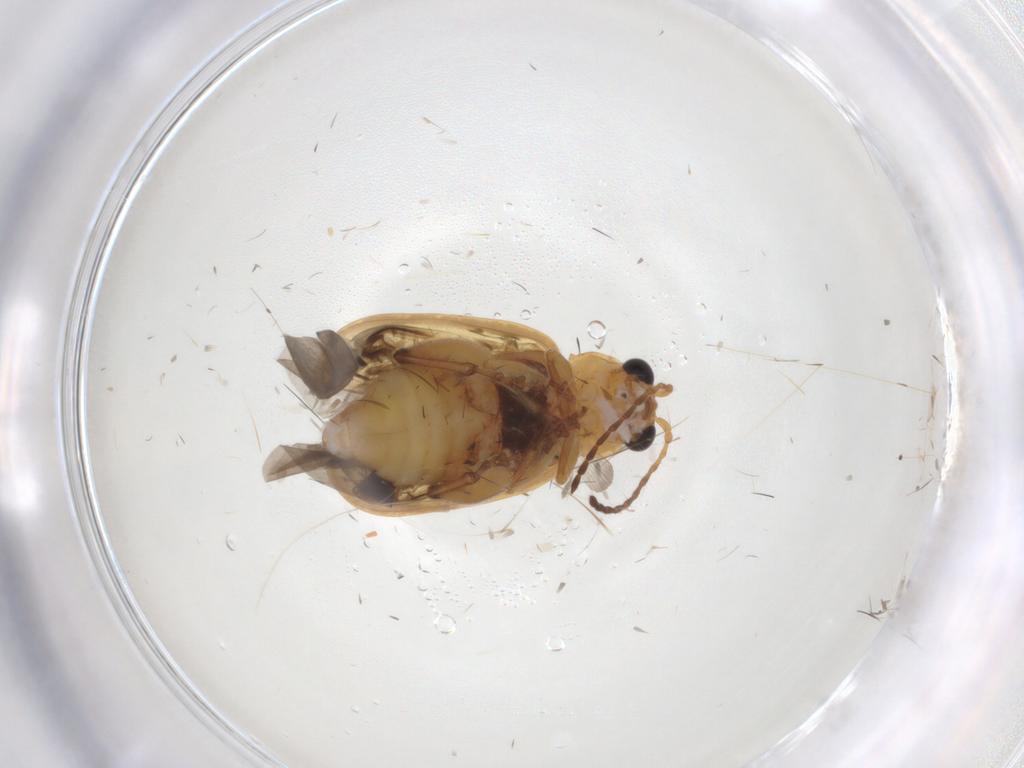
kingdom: Animalia
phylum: Arthropoda
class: Insecta
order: Coleoptera
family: Chrysomelidae
